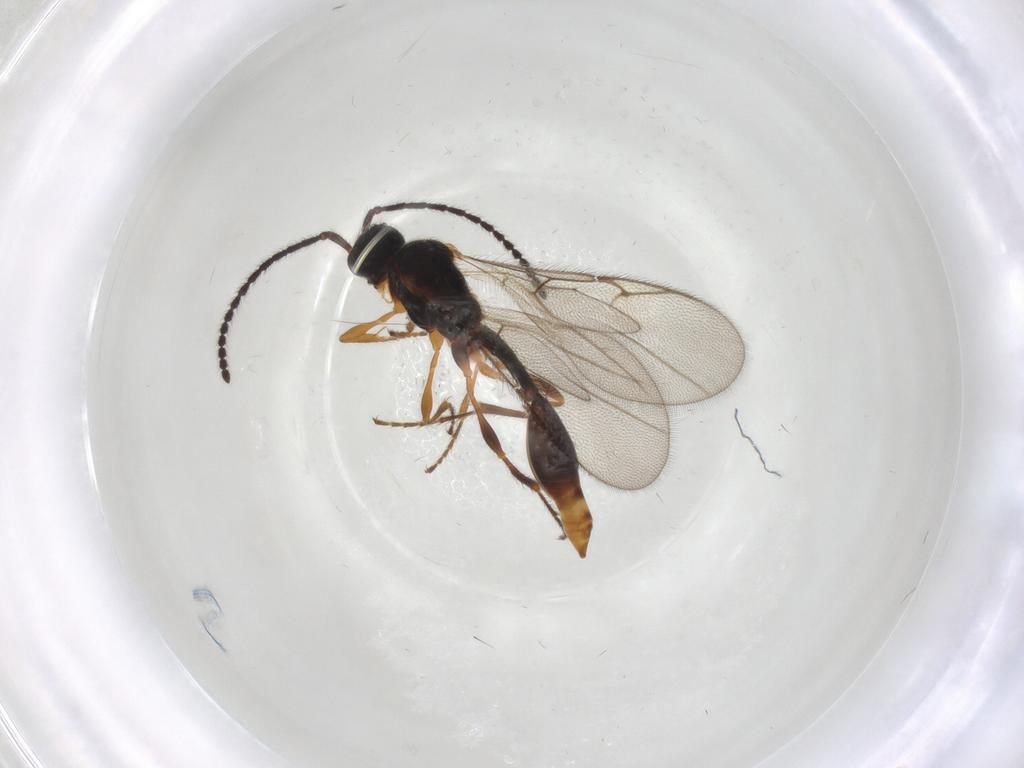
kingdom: Animalia
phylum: Arthropoda
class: Insecta
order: Hymenoptera
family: Diapriidae
